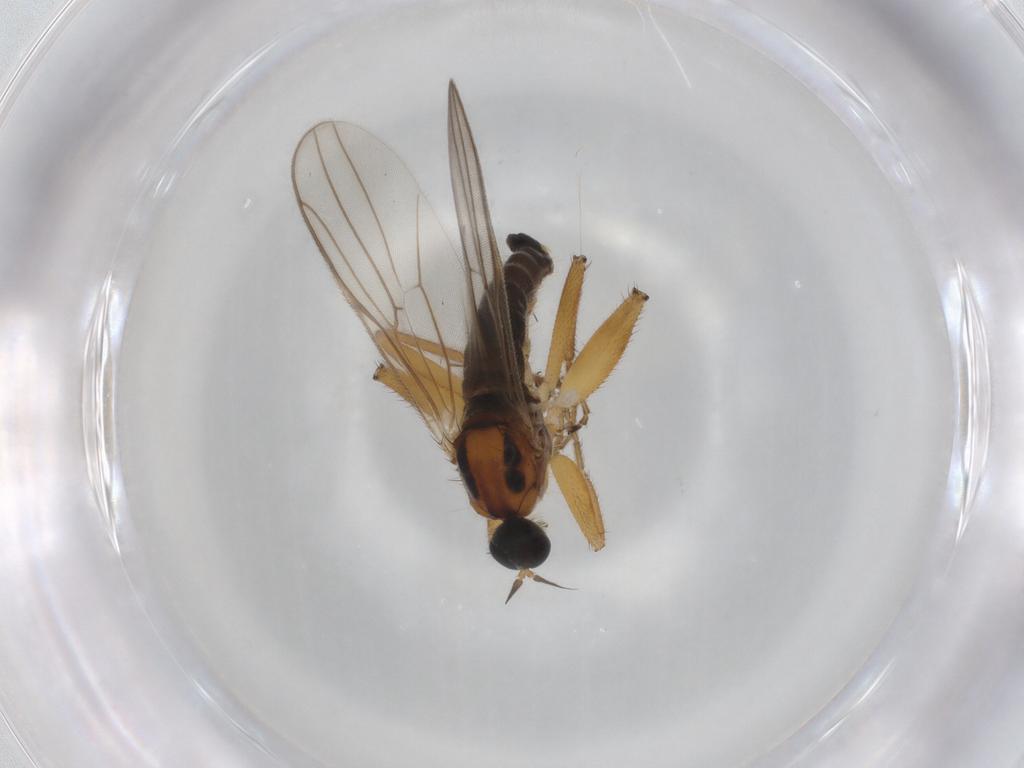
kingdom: Animalia
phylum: Arthropoda
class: Insecta
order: Diptera
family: Hybotidae
